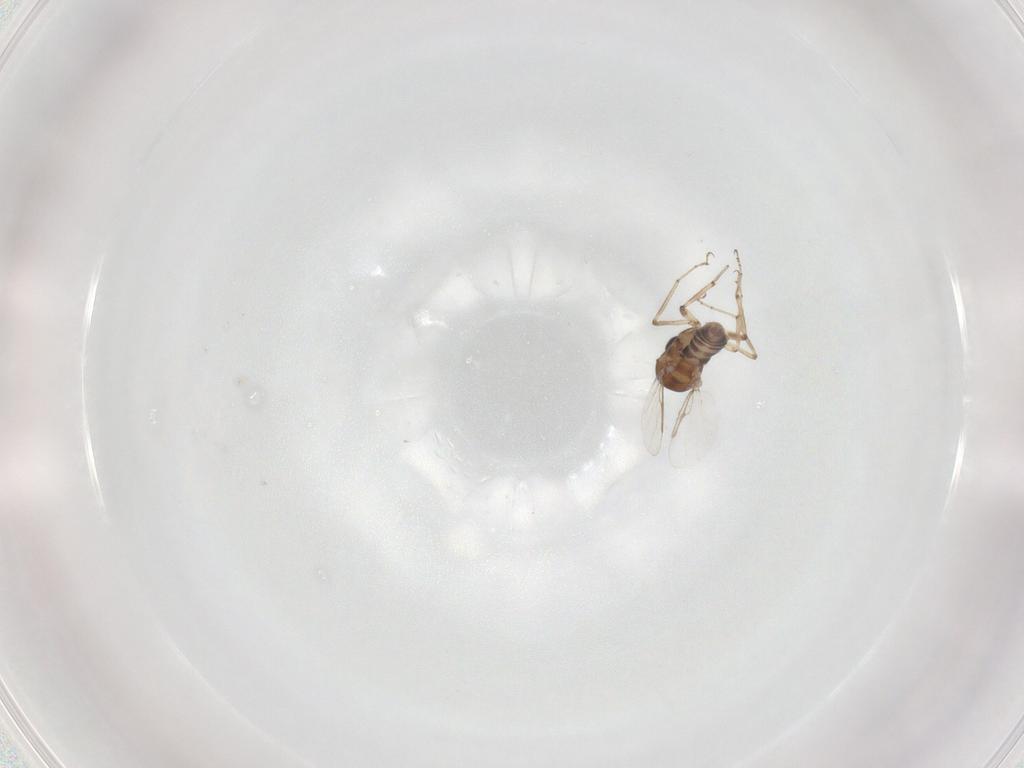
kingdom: Animalia
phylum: Arthropoda
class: Insecta
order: Diptera
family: Ceratopogonidae
